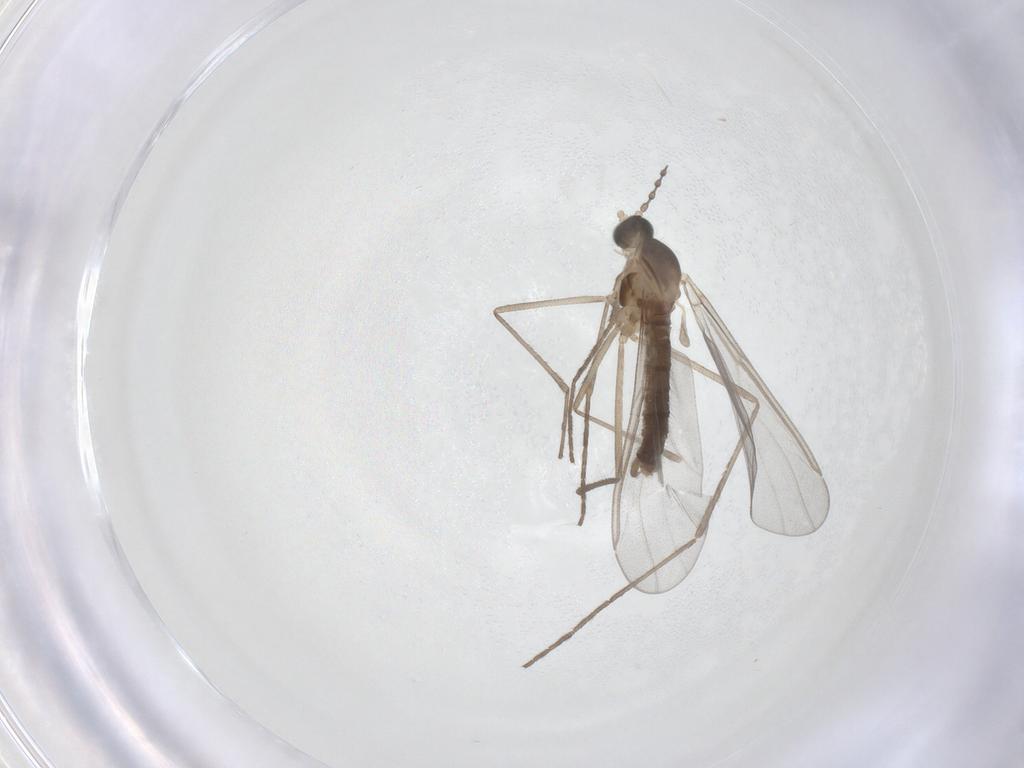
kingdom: Animalia
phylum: Arthropoda
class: Insecta
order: Diptera
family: Cecidomyiidae
